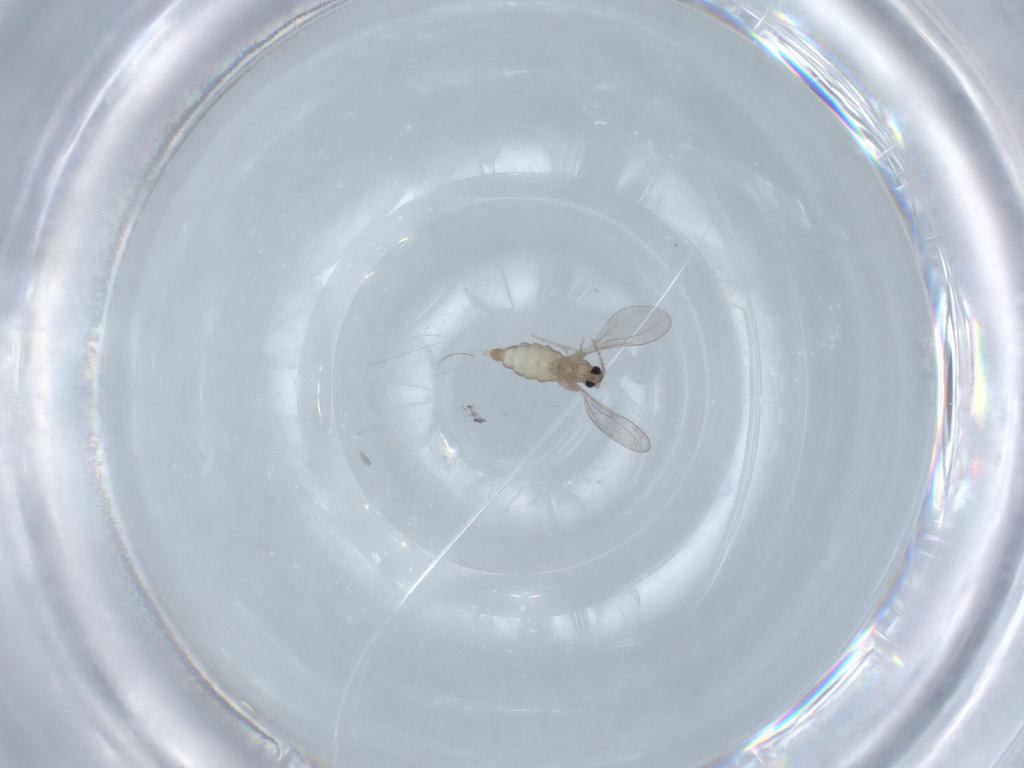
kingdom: Animalia
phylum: Arthropoda
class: Insecta
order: Diptera
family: Cecidomyiidae
